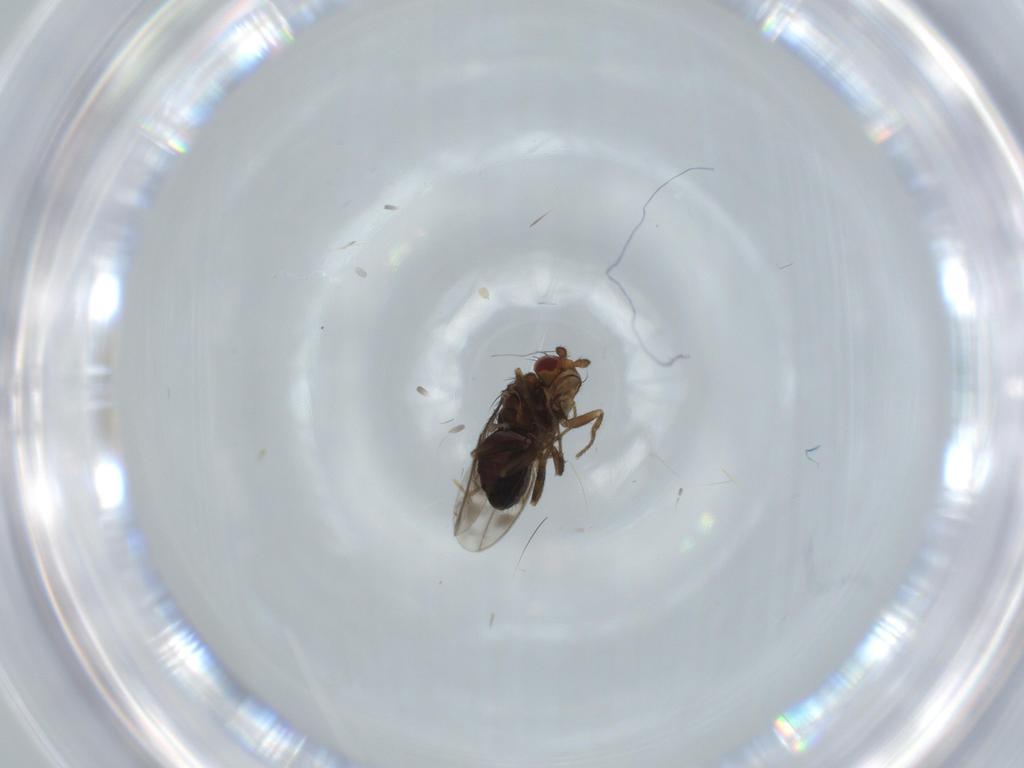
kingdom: Animalia
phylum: Arthropoda
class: Insecta
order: Diptera
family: Sphaeroceridae
